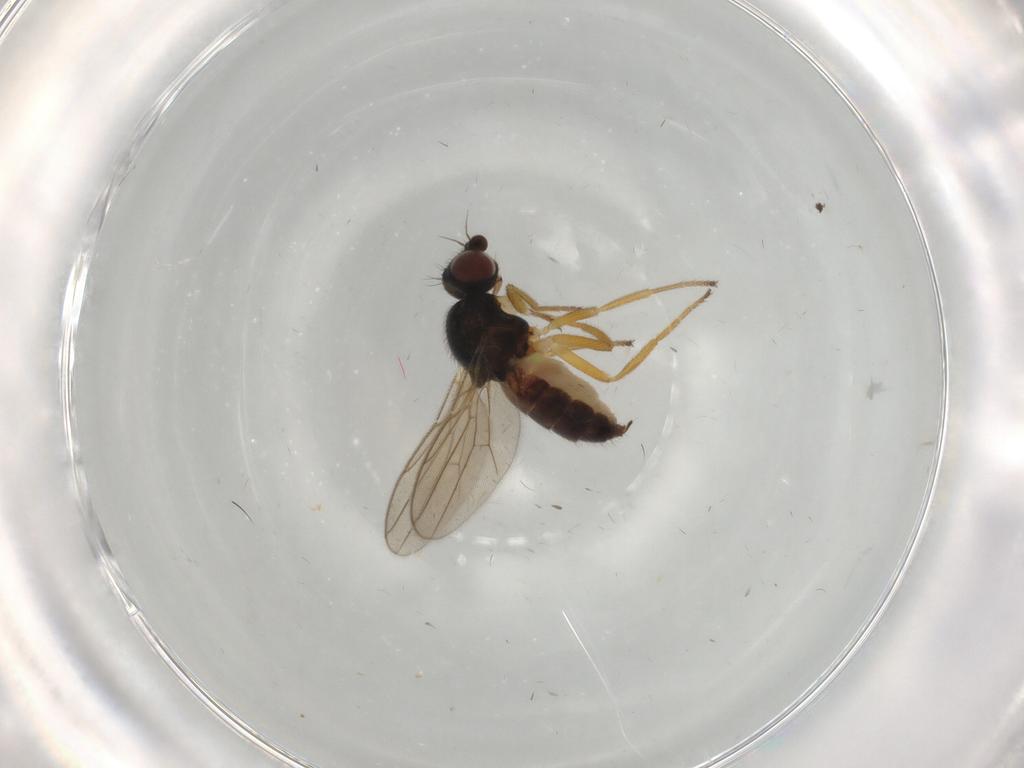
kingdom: Animalia
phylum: Arthropoda
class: Insecta
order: Diptera
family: Chloropidae
